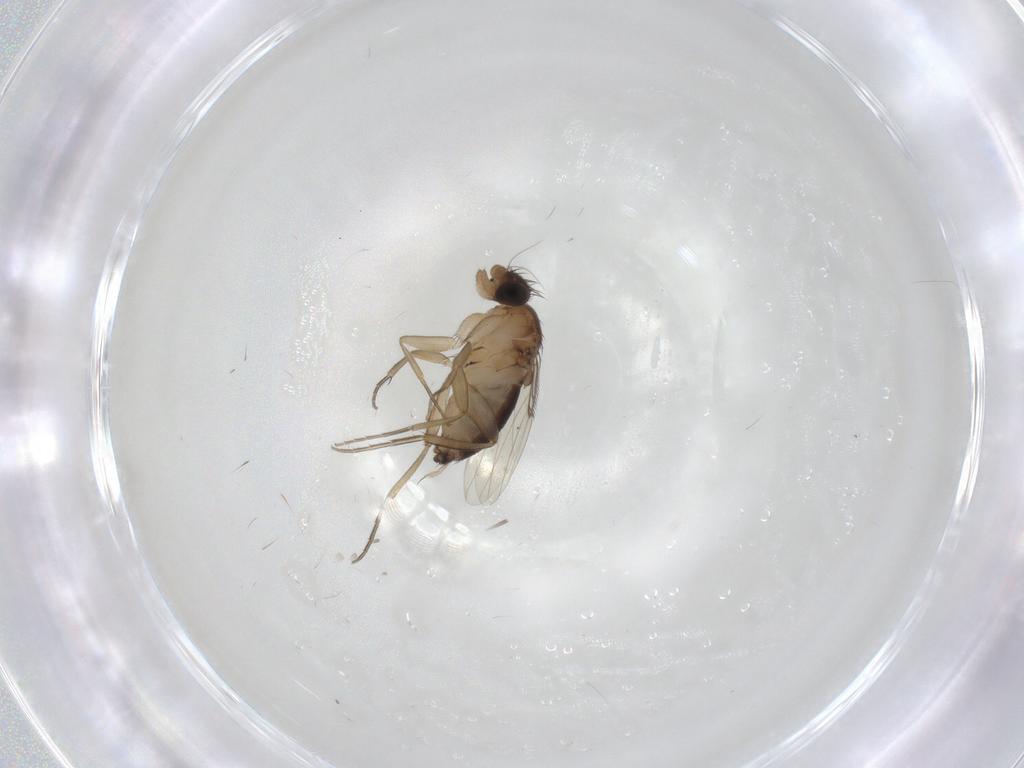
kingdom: Animalia
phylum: Arthropoda
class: Insecta
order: Diptera
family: Phoridae
